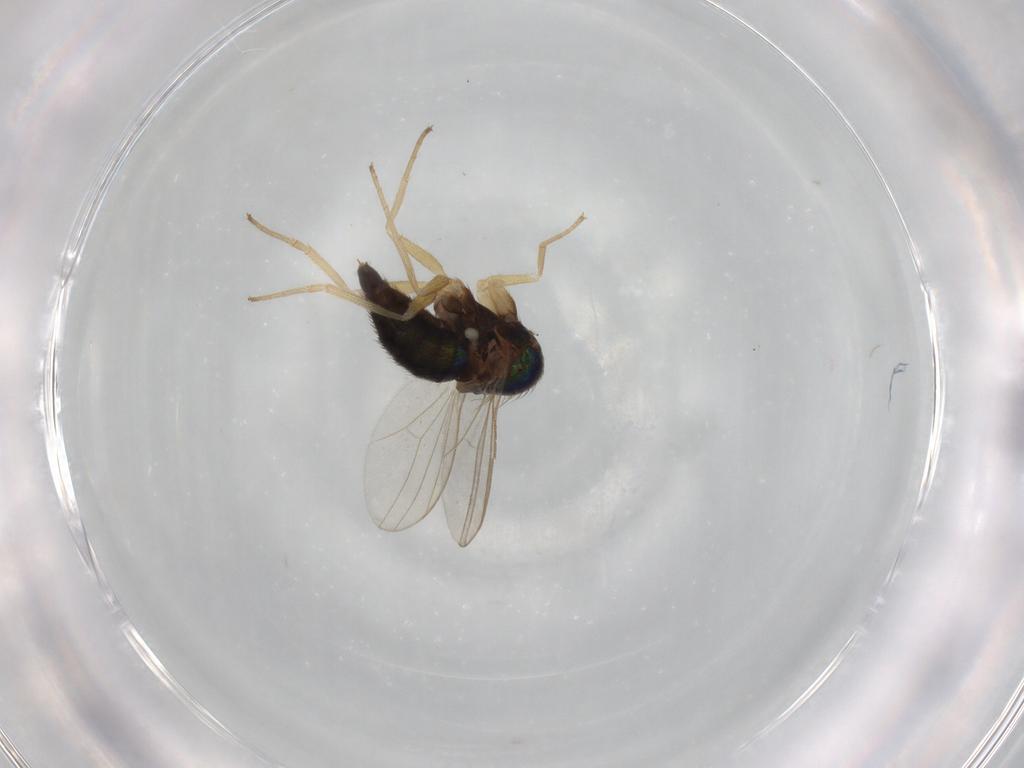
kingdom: Animalia
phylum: Arthropoda
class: Insecta
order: Diptera
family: Dolichopodidae
